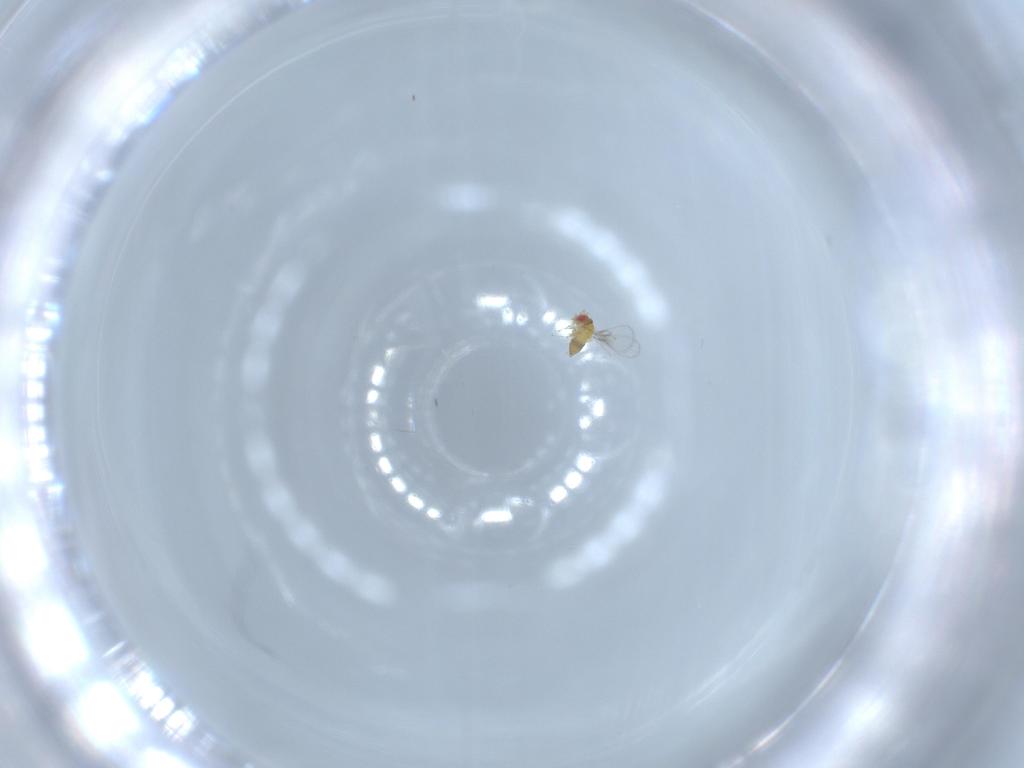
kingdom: Animalia
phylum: Arthropoda
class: Insecta
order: Hymenoptera
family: Trichogrammatidae
